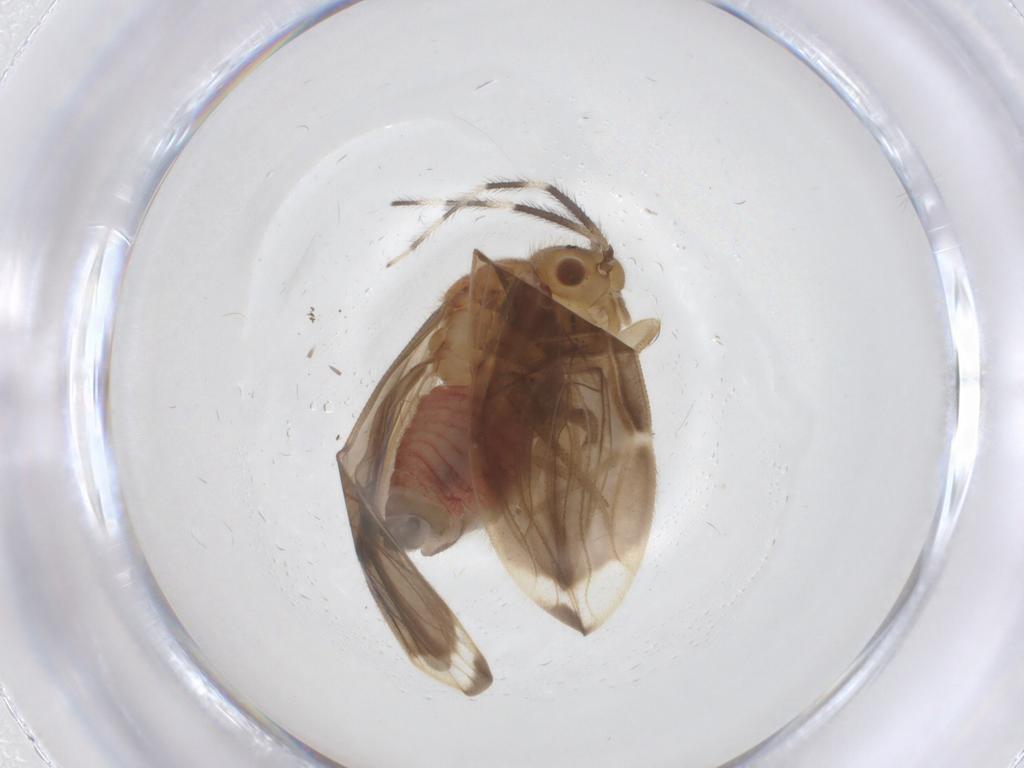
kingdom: Animalia
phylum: Arthropoda
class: Insecta
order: Psocodea
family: Amphipsocidae
